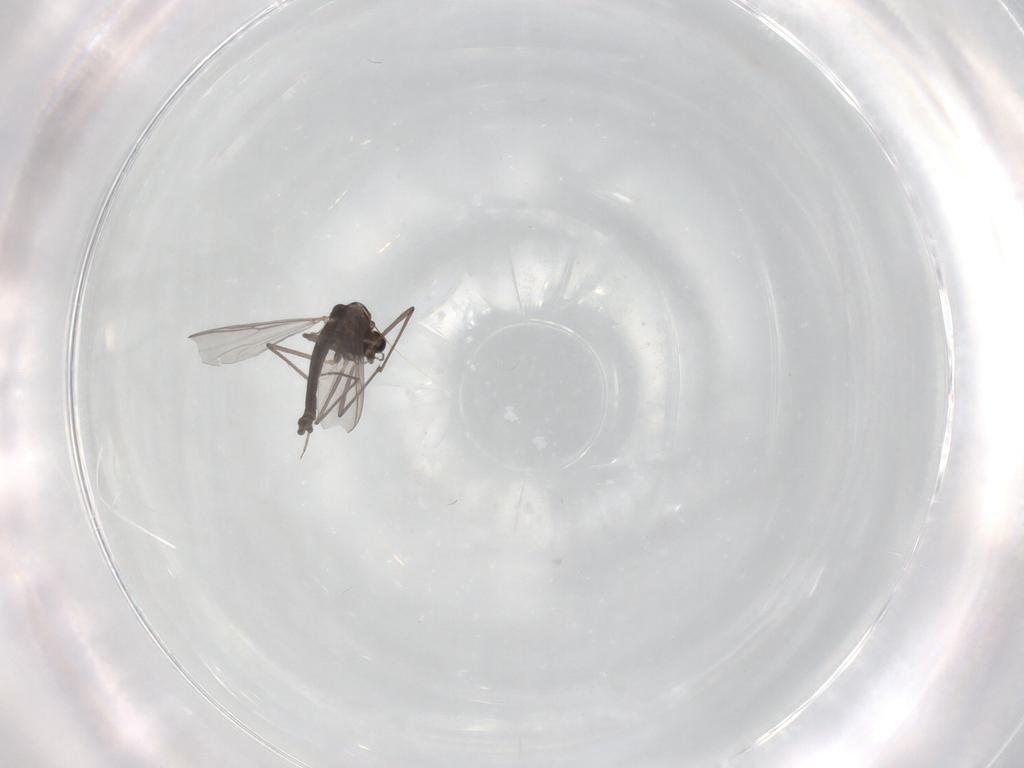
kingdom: Animalia
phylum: Arthropoda
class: Insecta
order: Diptera
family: Chironomidae
